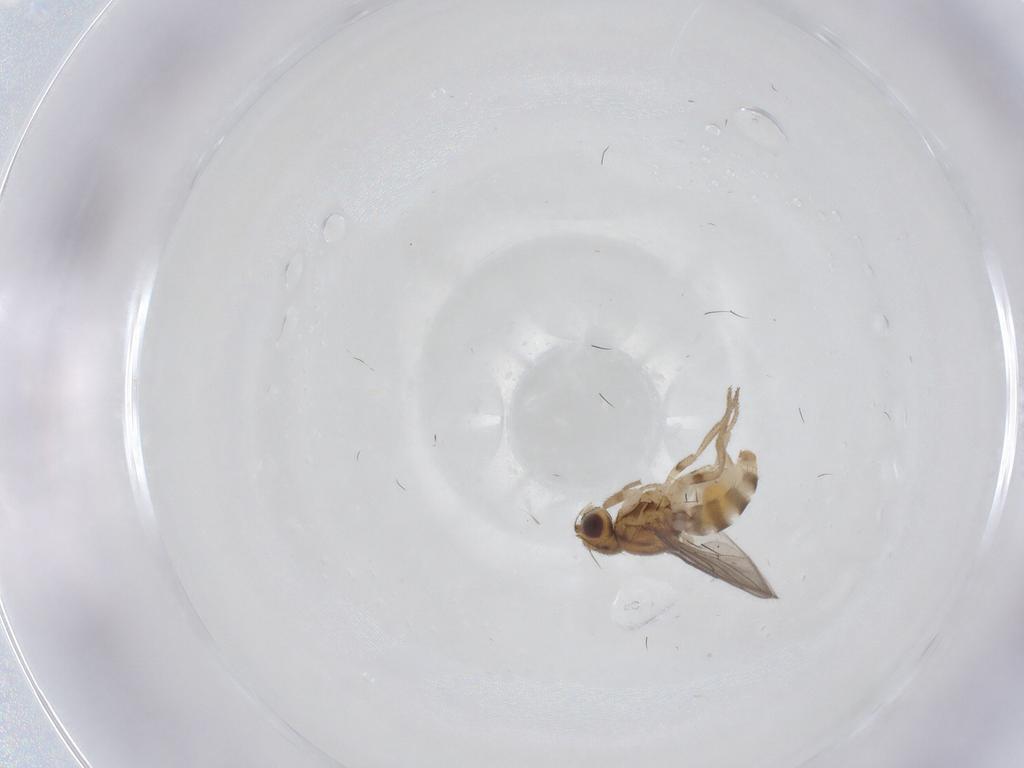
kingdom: Animalia
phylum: Arthropoda
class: Insecta
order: Diptera
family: Chloropidae
